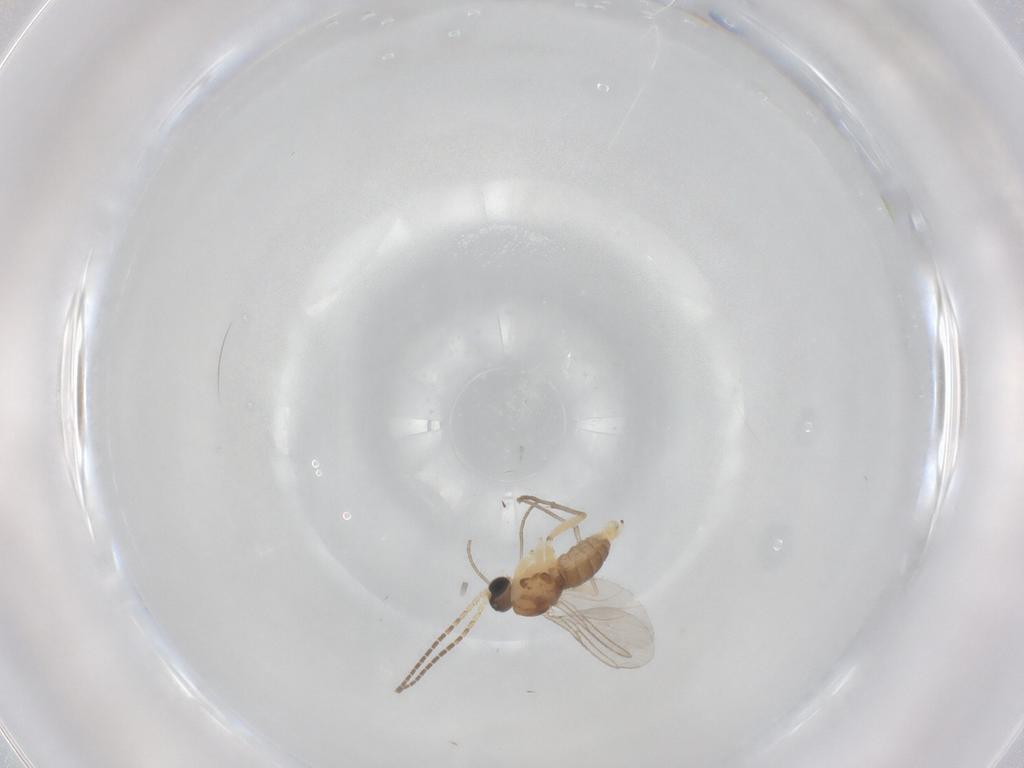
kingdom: Animalia
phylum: Arthropoda
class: Insecta
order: Diptera
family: Sciaridae
